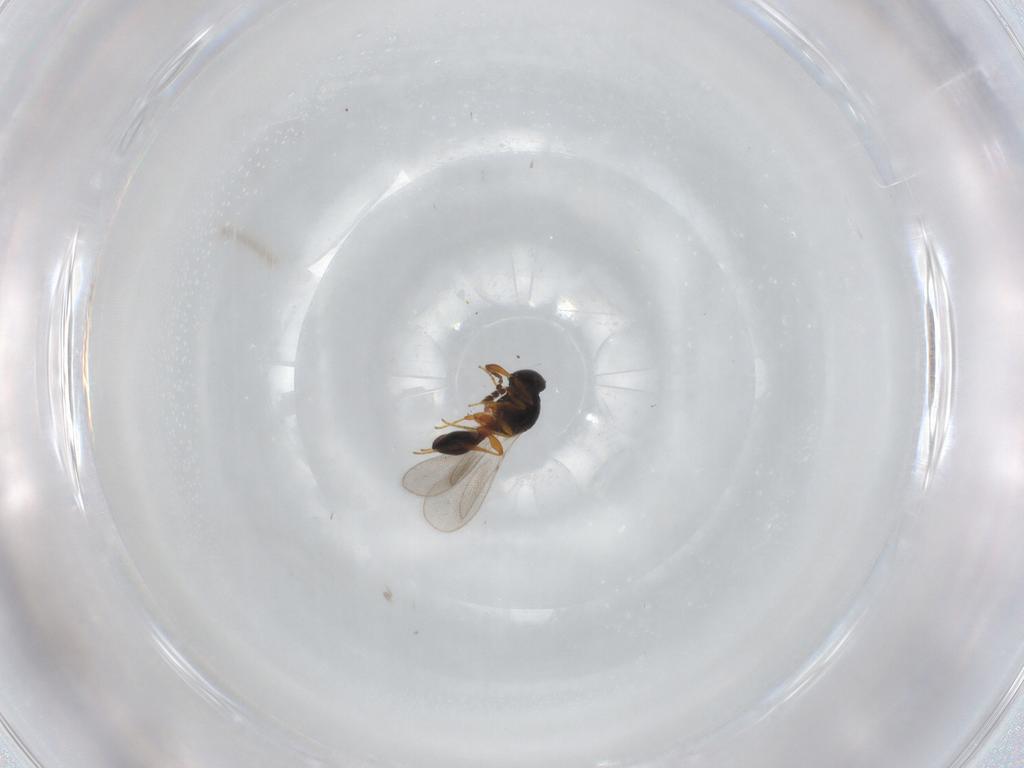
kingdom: Animalia
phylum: Arthropoda
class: Insecta
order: Hymenoptera
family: Platygastridae
